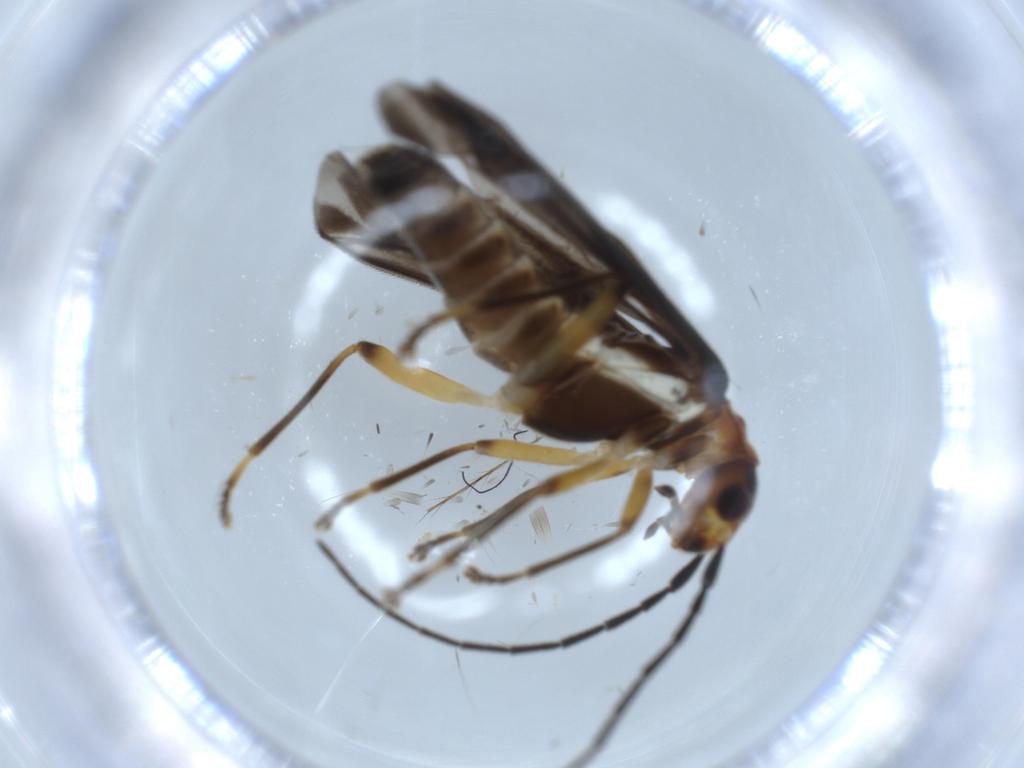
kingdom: Animalia
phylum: Arthropoda
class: Insecta
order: Coleoptera
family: Cantharidae
